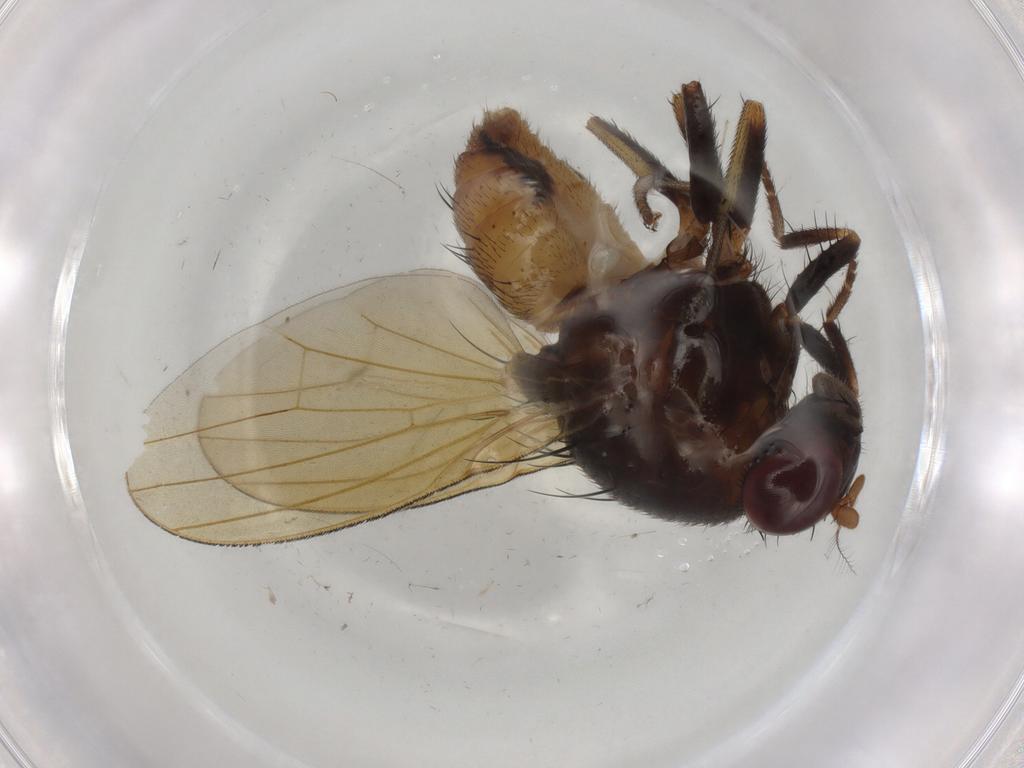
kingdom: Animalia
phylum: Arthropoda
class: Insecta
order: Diptera
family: Lauxaniidae
